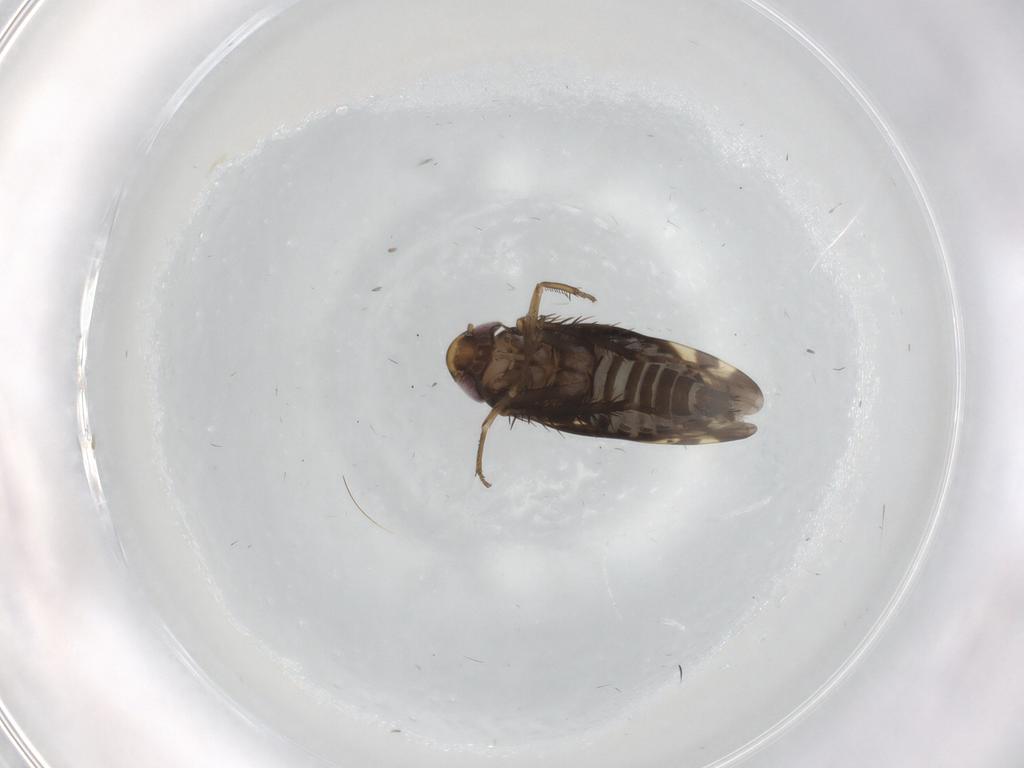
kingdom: Animalia
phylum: Arthropoda
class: Insecta
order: Hemiptera
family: Cicadellidae
